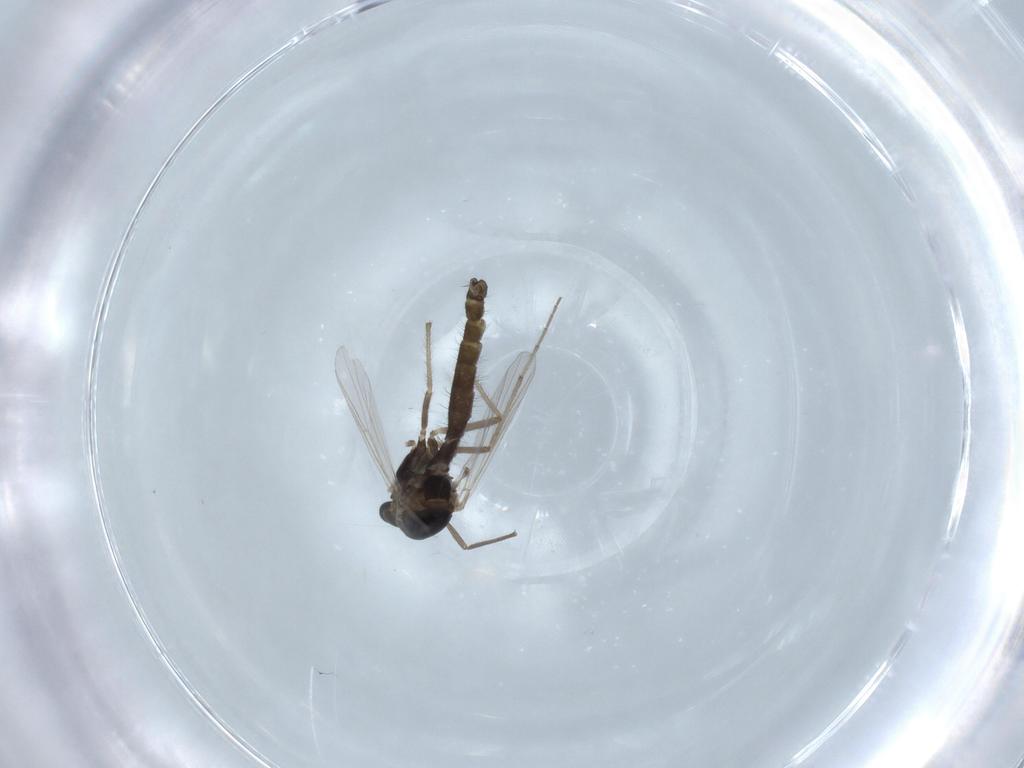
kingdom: Animalia
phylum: Arthropoda
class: Insecta
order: Diptera
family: Chironomidae
